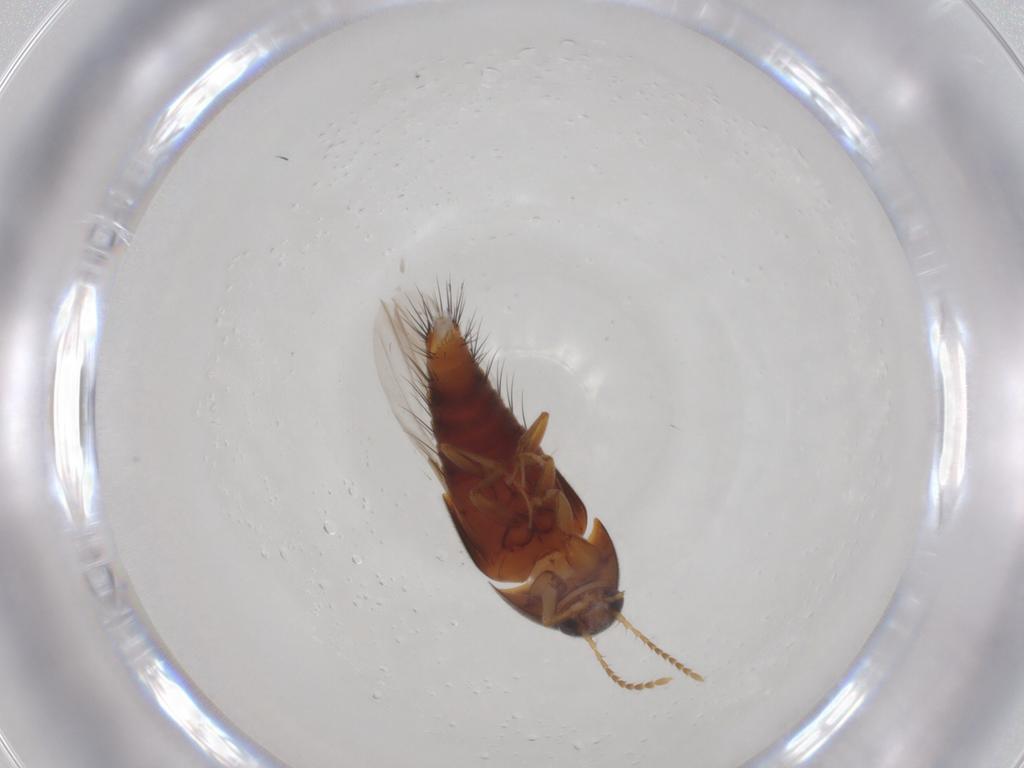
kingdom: Animalia
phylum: Arthropoda
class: Insecta
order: Coleoptera
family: Staphylinidae
